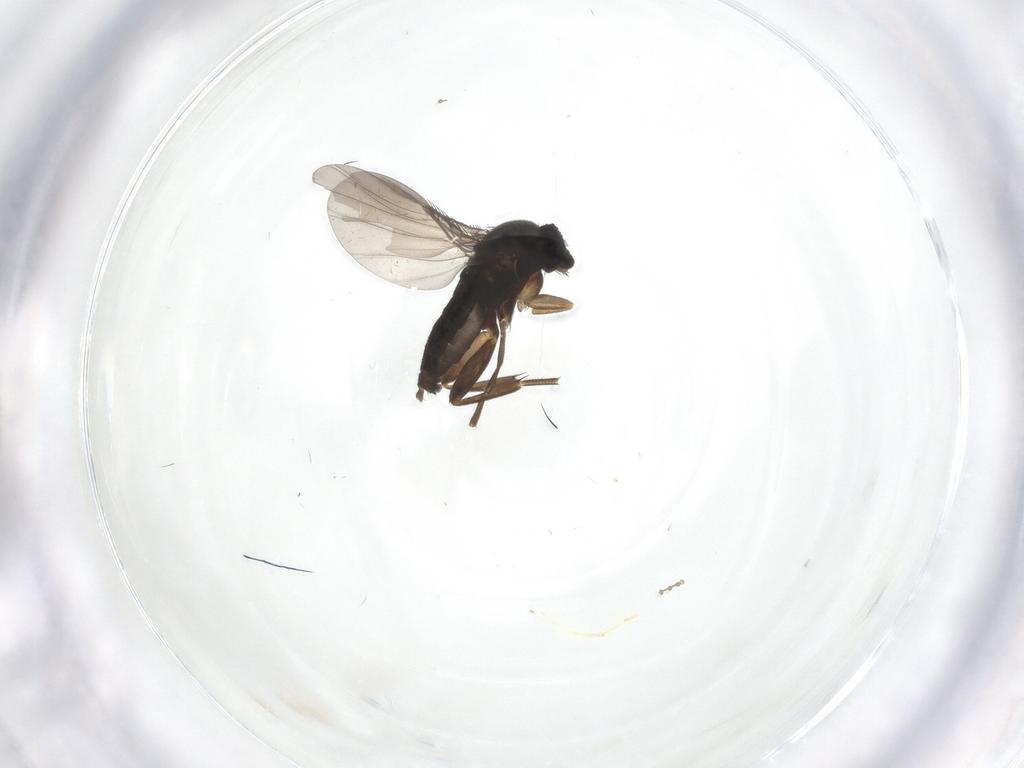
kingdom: Animalia
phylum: Arthropoda
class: Insecta
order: Diptera
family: Cecidomyiidae
